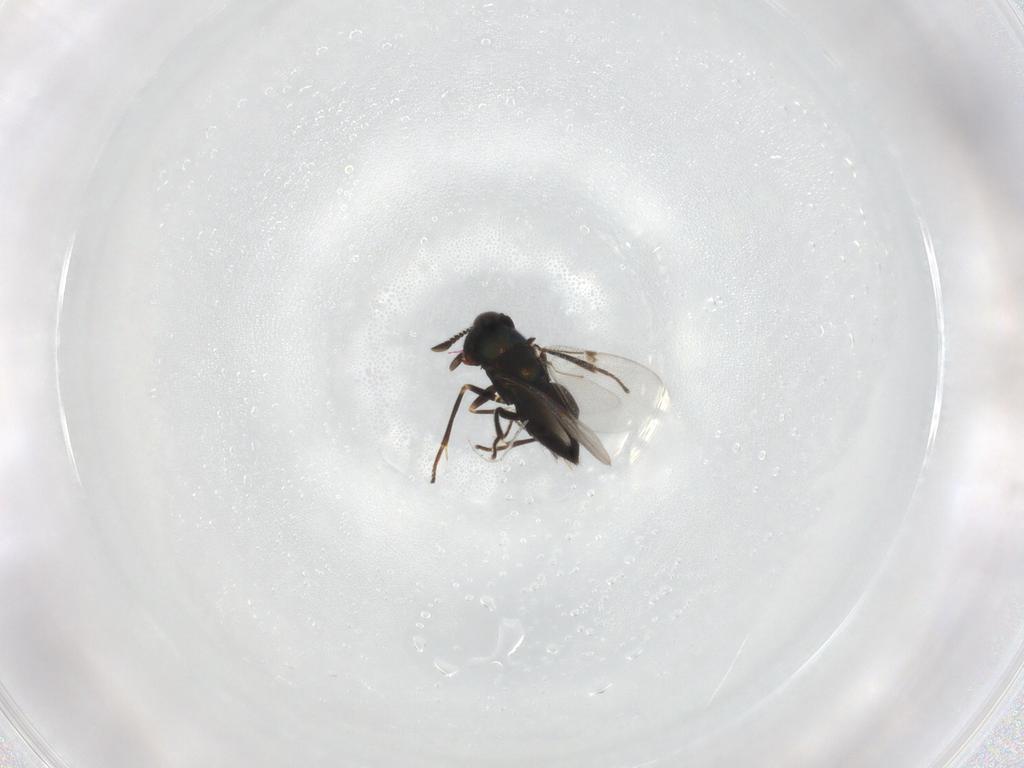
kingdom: Animalia
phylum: Arthropoda
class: Insecta
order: Hymenoptera
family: Encyrtidae
